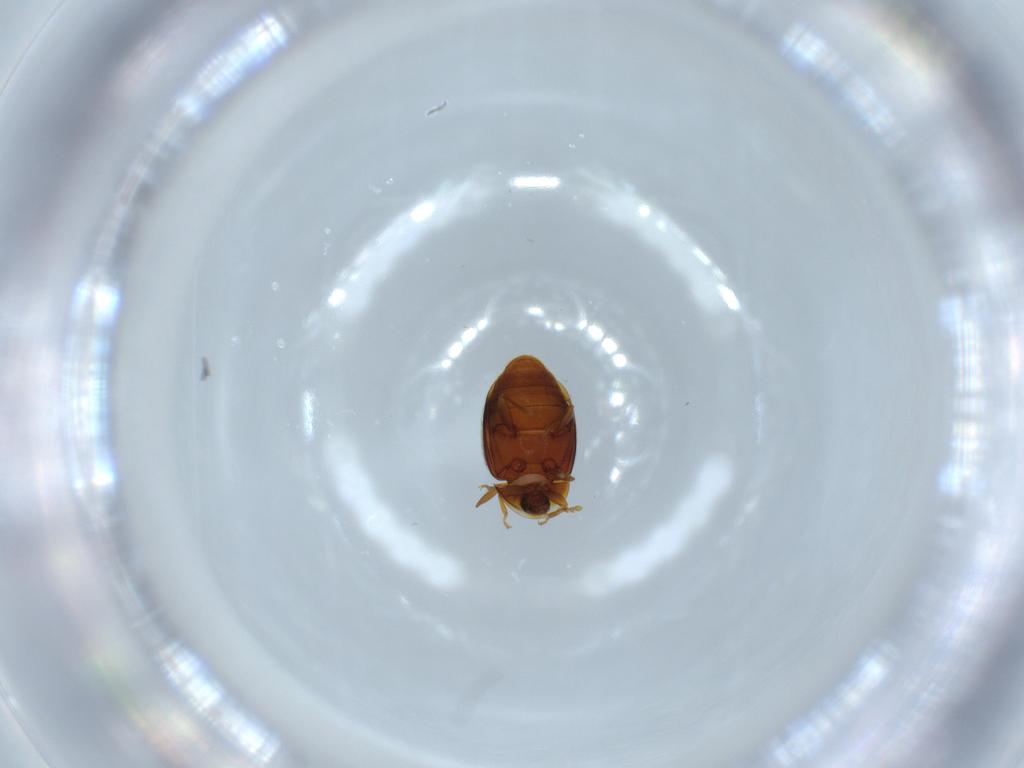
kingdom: Animalia
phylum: Arthropoda
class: Insecta
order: Coleoptera
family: Corylophidae
